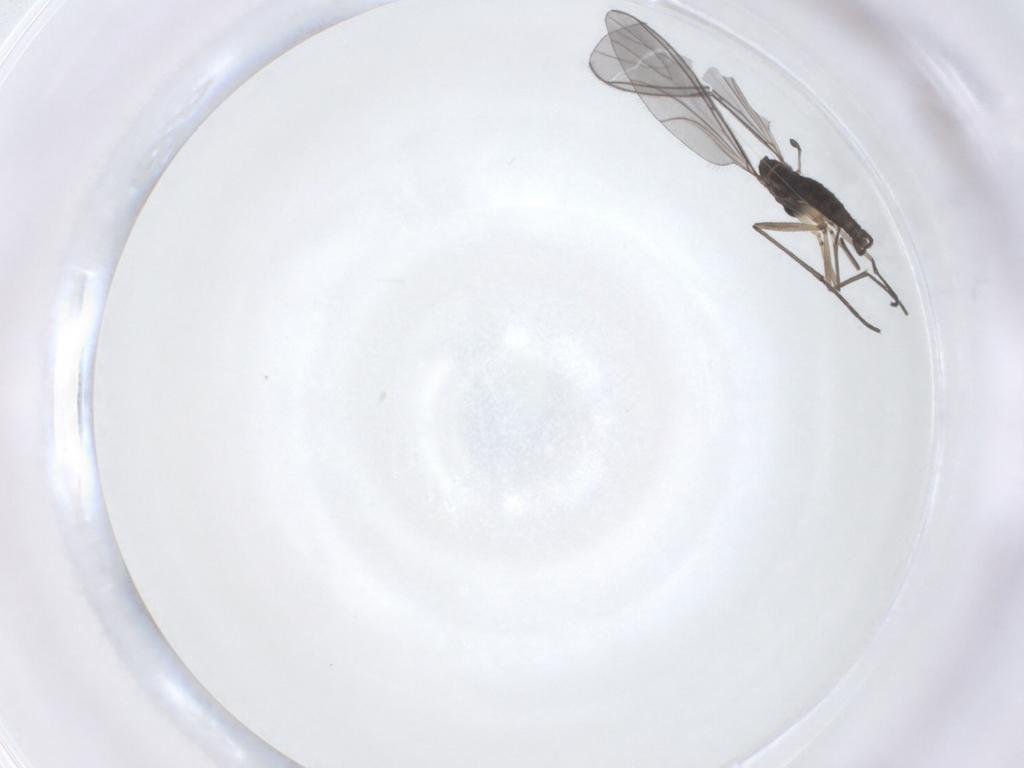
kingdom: Animalia
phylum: Arthropoda
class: Insecta
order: Diptera
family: Sciaridae
